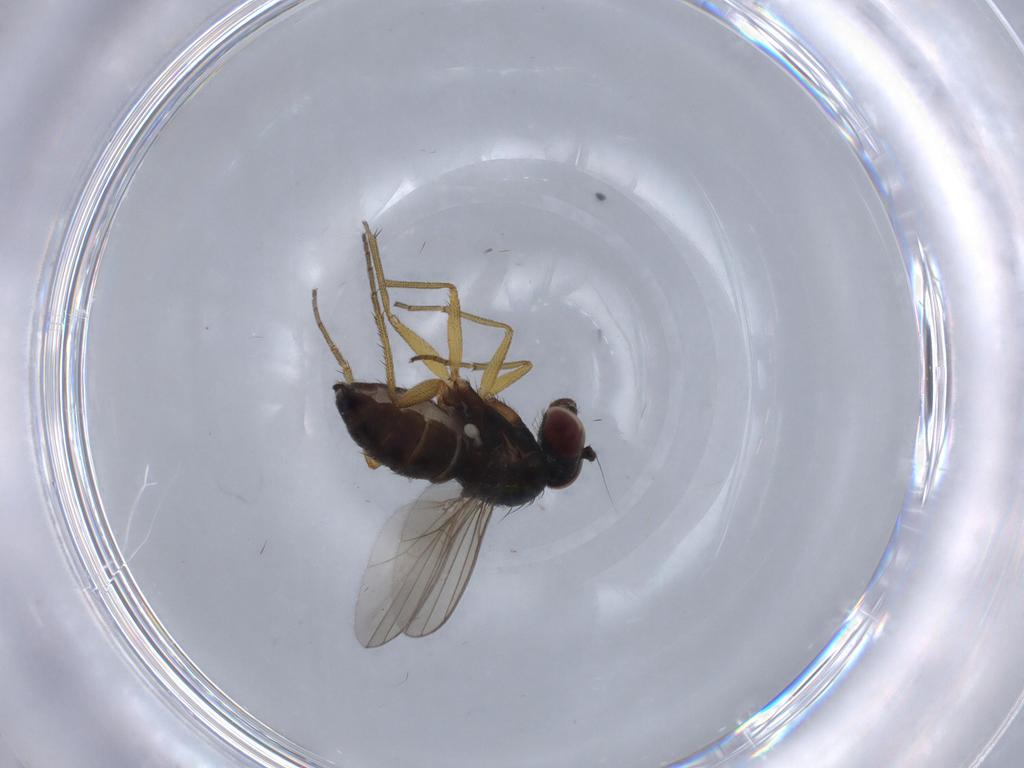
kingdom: Animalia
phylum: Arthropoda
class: Insecta
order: Diptera
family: Dolichopodidae
